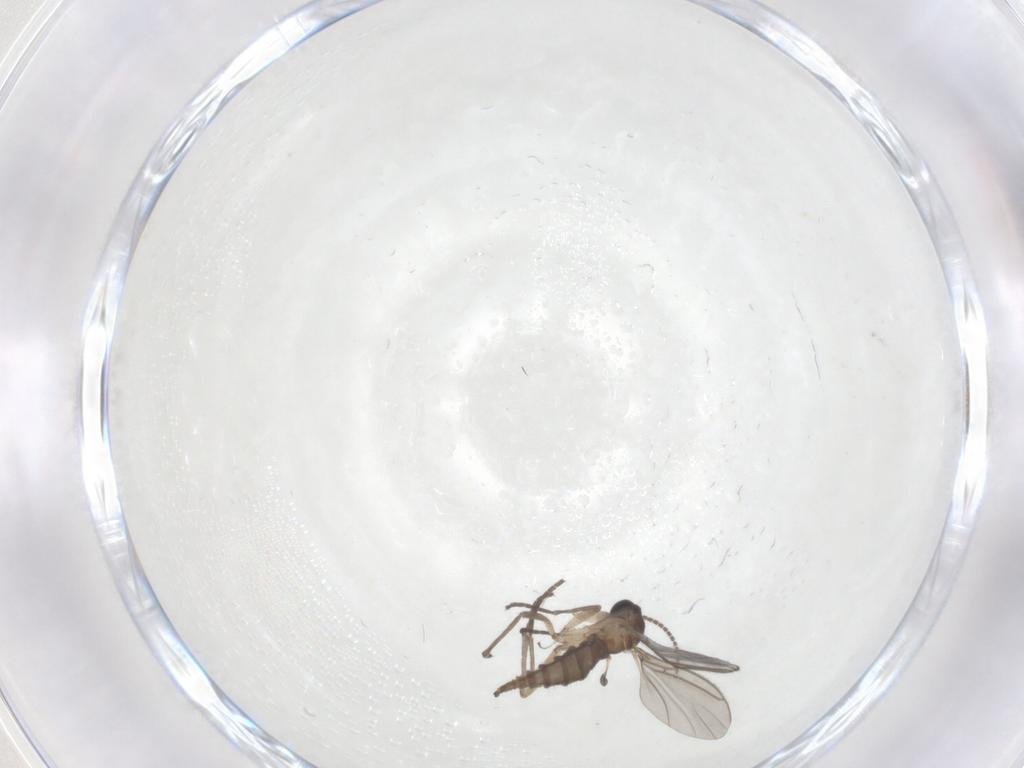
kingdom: Animalia
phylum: Arthropoda
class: Insecta
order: Diptera
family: Sciaridae
